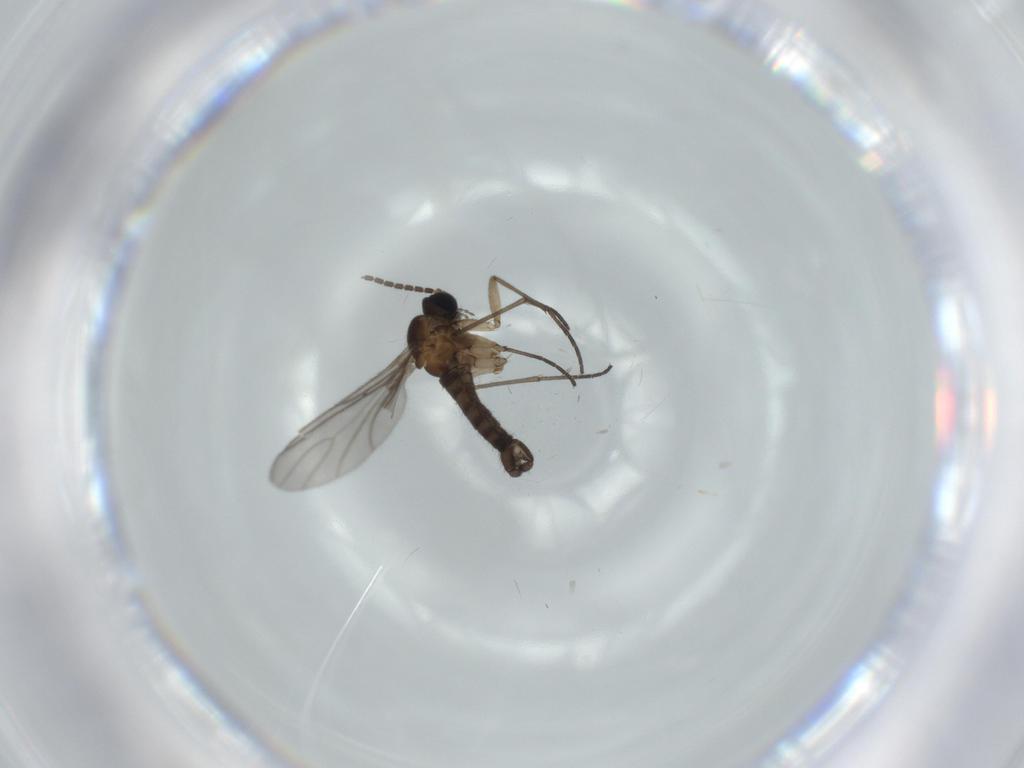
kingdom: Animalia
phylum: Arthropoda
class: Insecta
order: Diptera
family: Sciaridae
